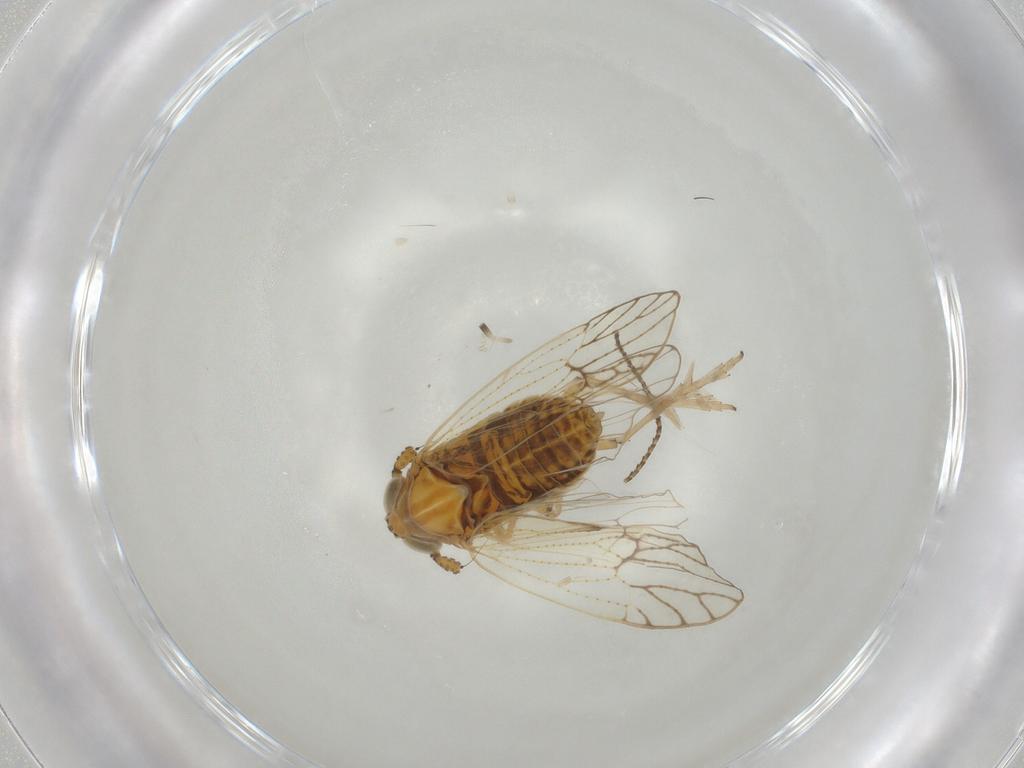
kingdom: Animalia
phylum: Arthropoda
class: Insecta
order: Hemiptera
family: Delphacidae
